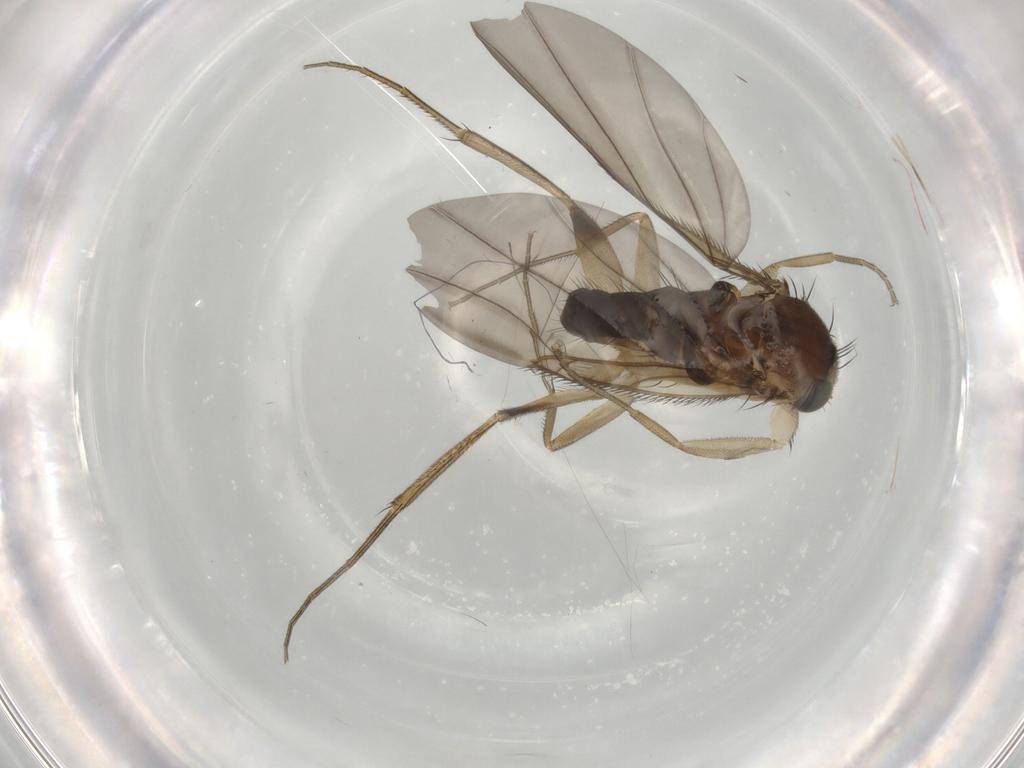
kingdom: Animalia
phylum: Arthropoda
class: Insecta
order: Diptera
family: Phoridae
